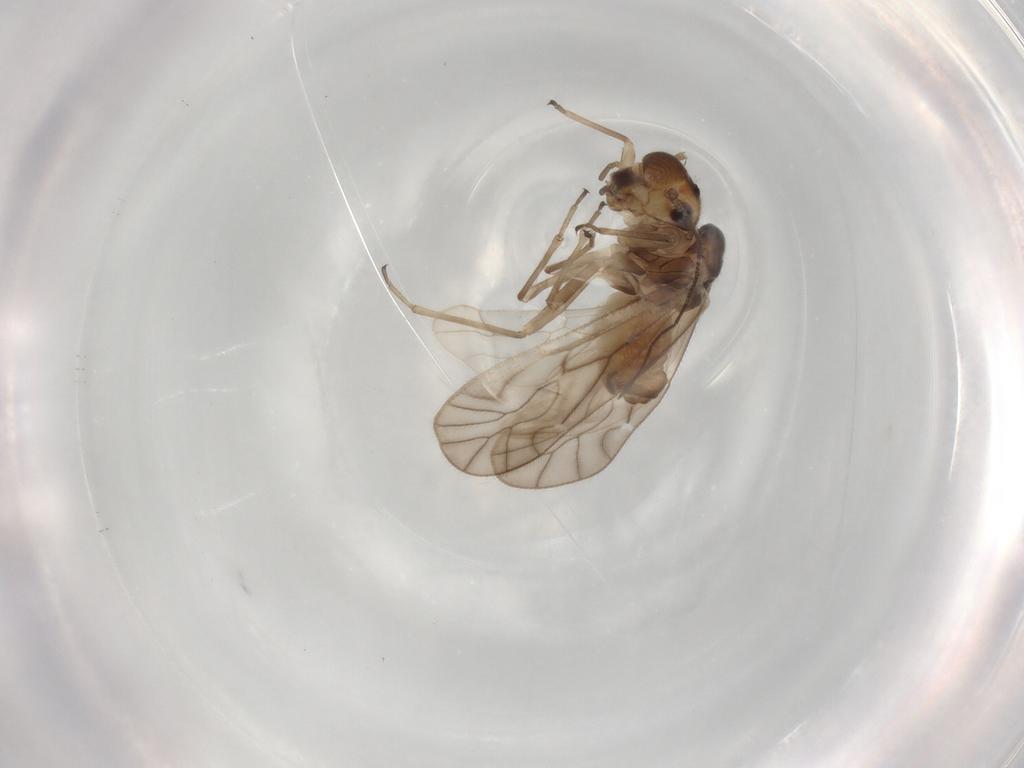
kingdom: Animalia
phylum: Arthropoda
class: Insecta
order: Psocodea
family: Philotarsidae
